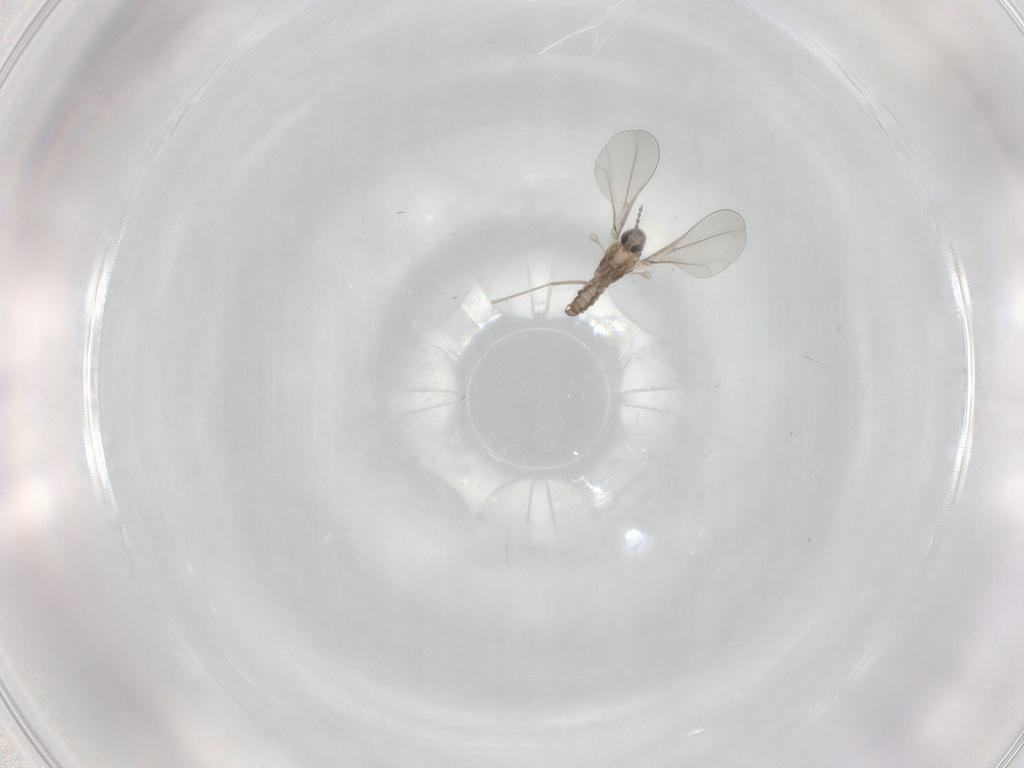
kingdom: Animalia
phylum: Arthropoda
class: Insecta
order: Diptera
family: Cecidomyiidae
